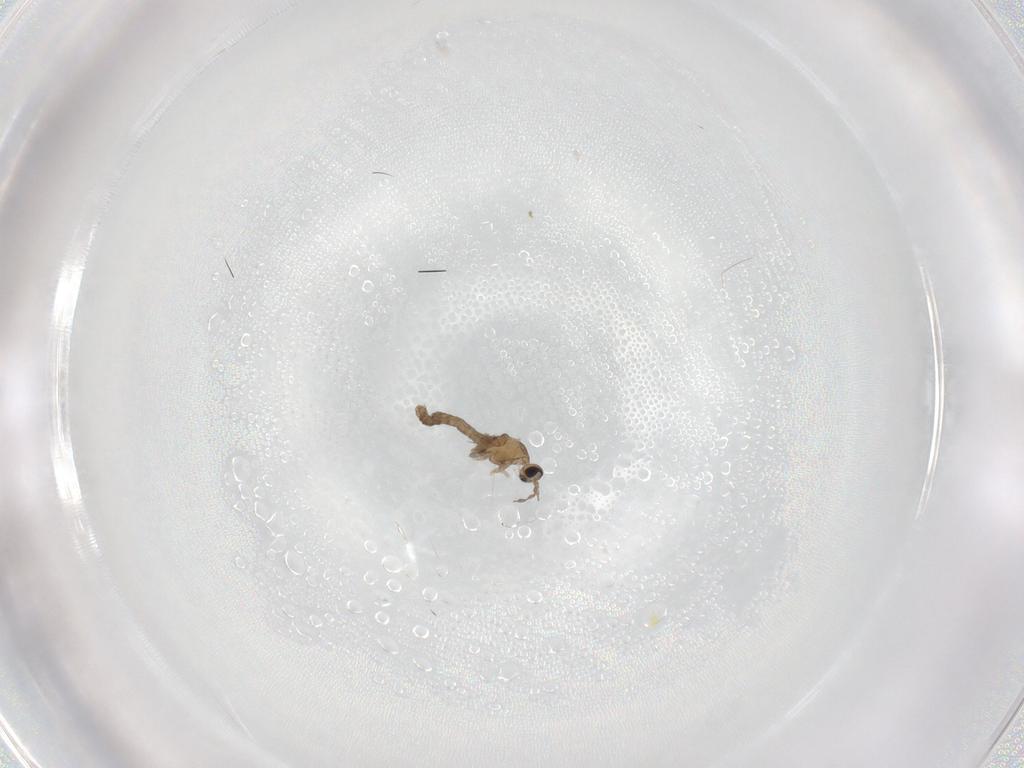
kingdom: Animalia
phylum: Arthropoda
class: Insecta
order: Diptera
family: Cecidomyiidae
